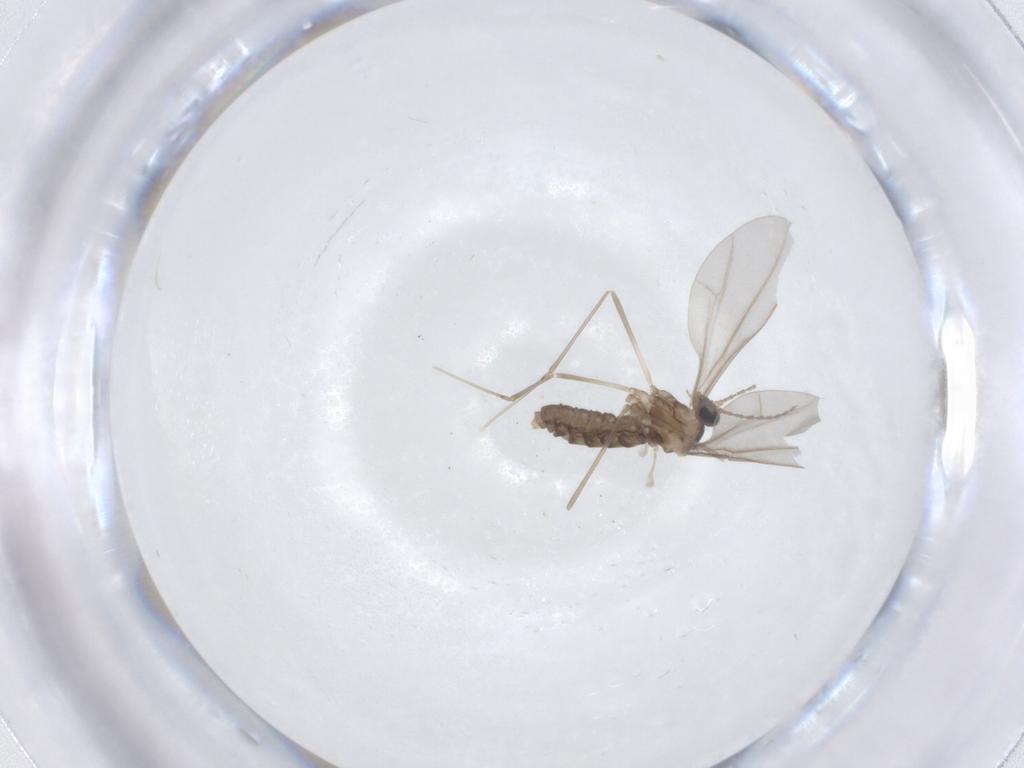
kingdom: Animalia
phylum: Arthropoda
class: Insecta
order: Diptera
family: Cecidomyiidae
